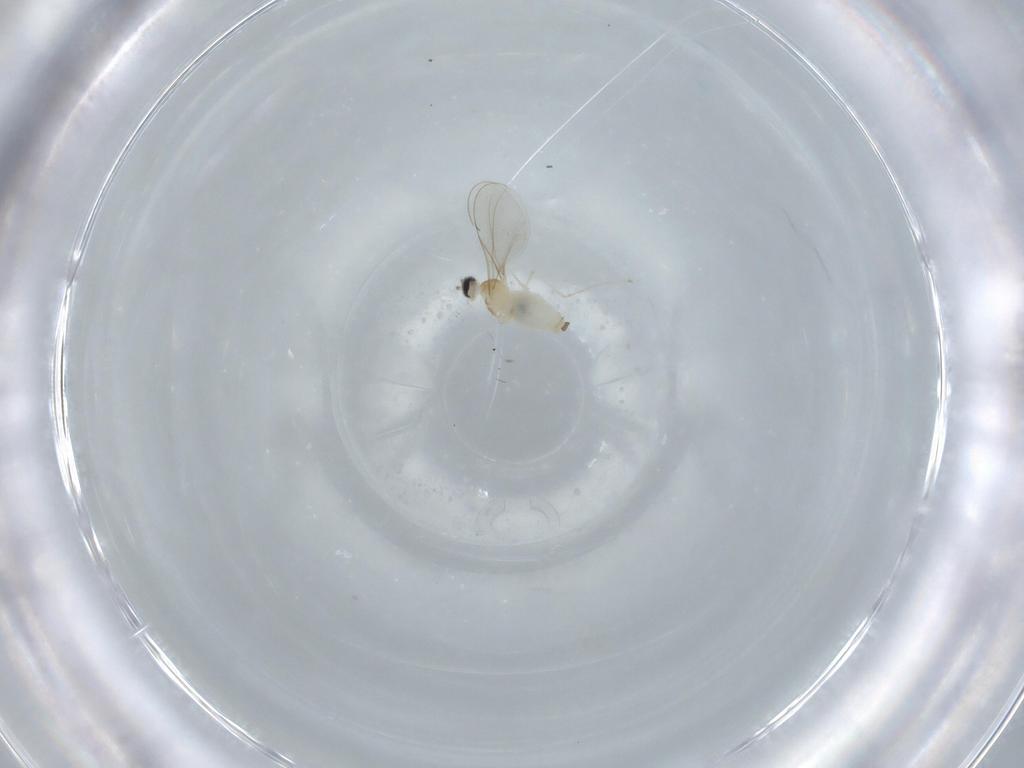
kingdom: Animalia
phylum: Arthropoda
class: Insecta
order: Diptera
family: Cecidomyiidae
